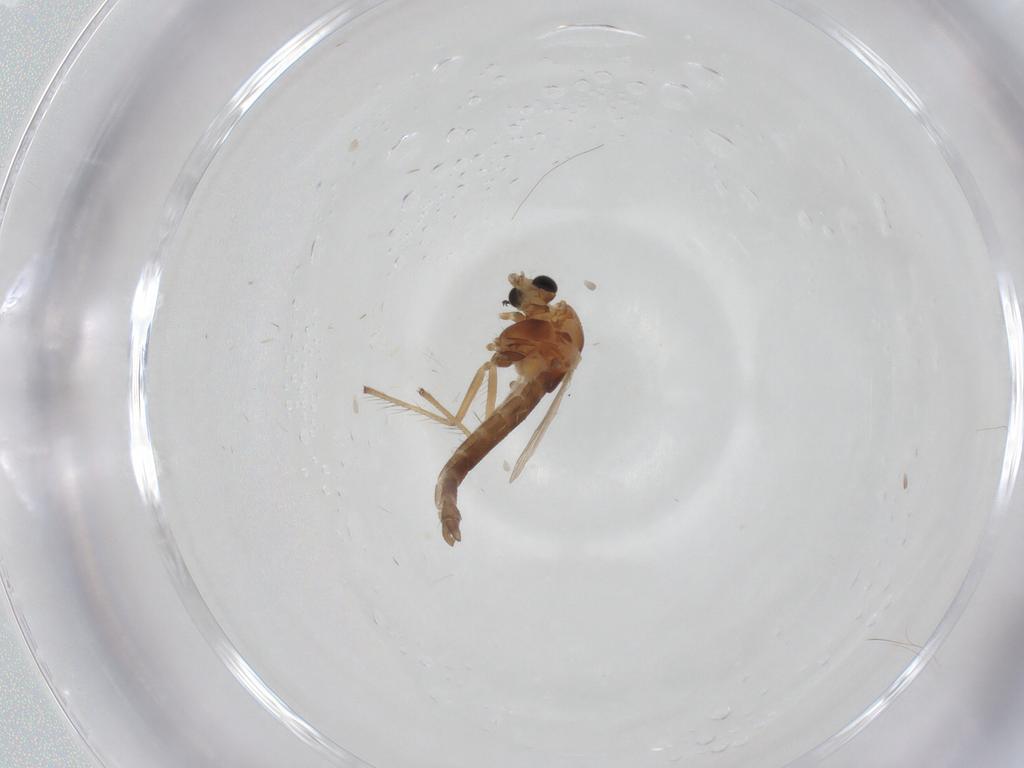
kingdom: Animalia
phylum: Arthropoda
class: Insecta
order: Diptera
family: Chironomidae
